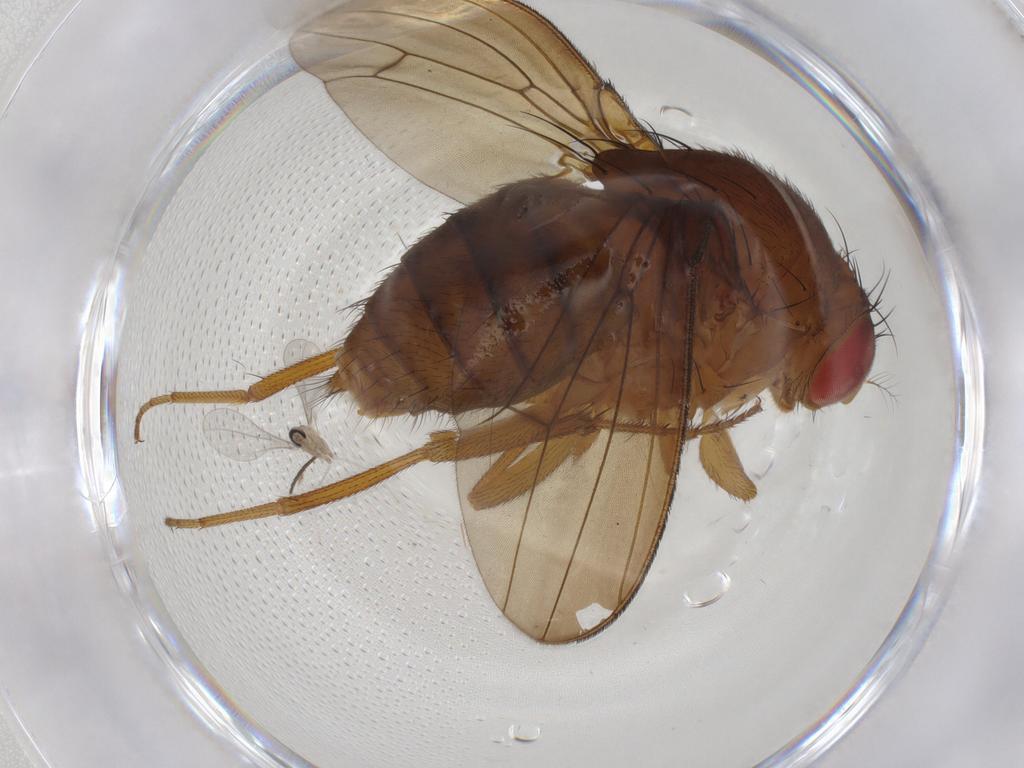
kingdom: Animalia
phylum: Arthropoda
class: Insecta
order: Diptera
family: Drosophilidae
